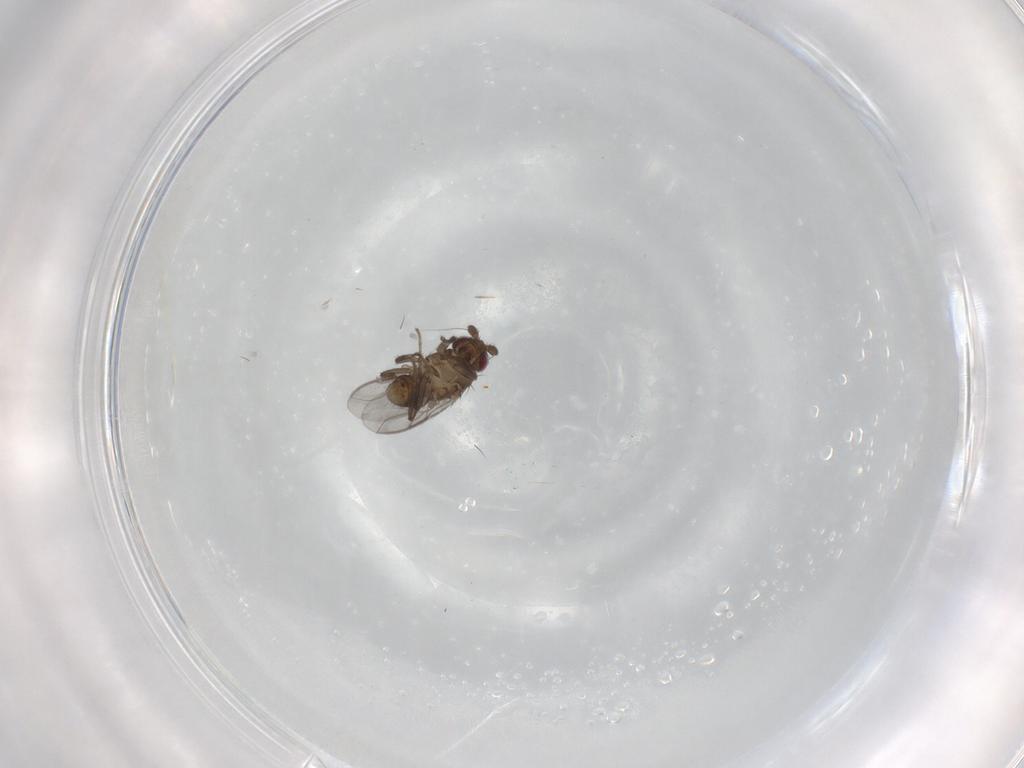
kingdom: Animalia
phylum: Arthropoda
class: Insecta
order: Diptera
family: Sphaeroceridae
